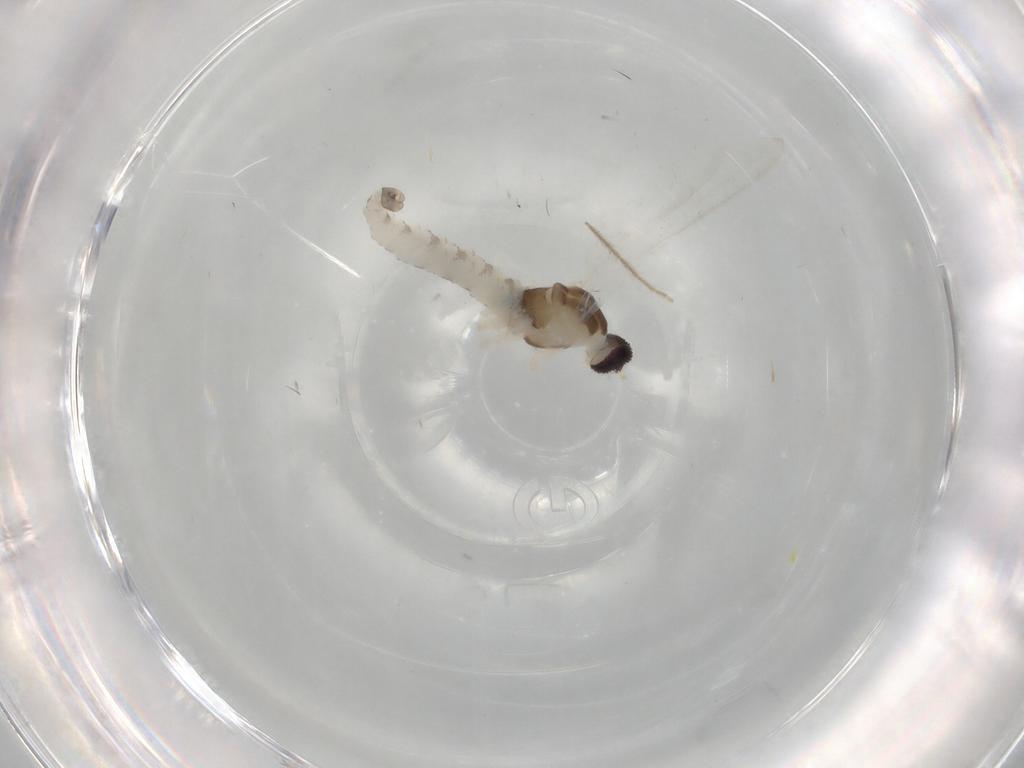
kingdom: Animalia
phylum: Arthropoda
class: Insecta
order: Diptera
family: Cecidomyiidae
